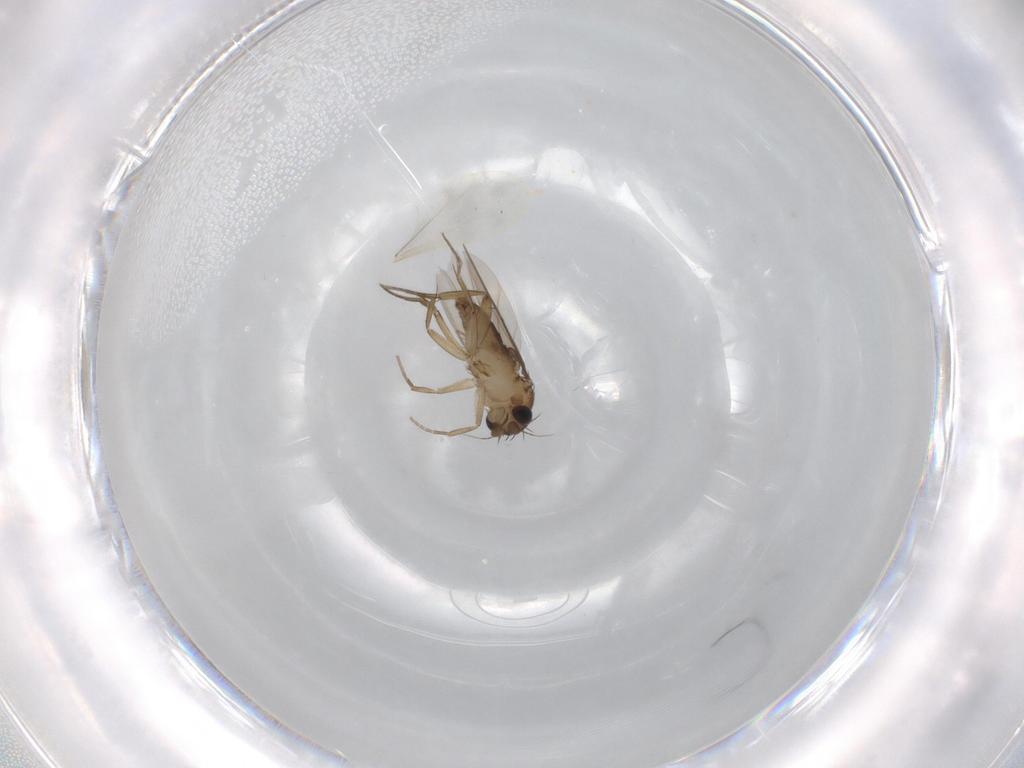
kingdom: Animalia
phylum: Arthropoda
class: Insecta
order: Diptera
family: Phoridae
